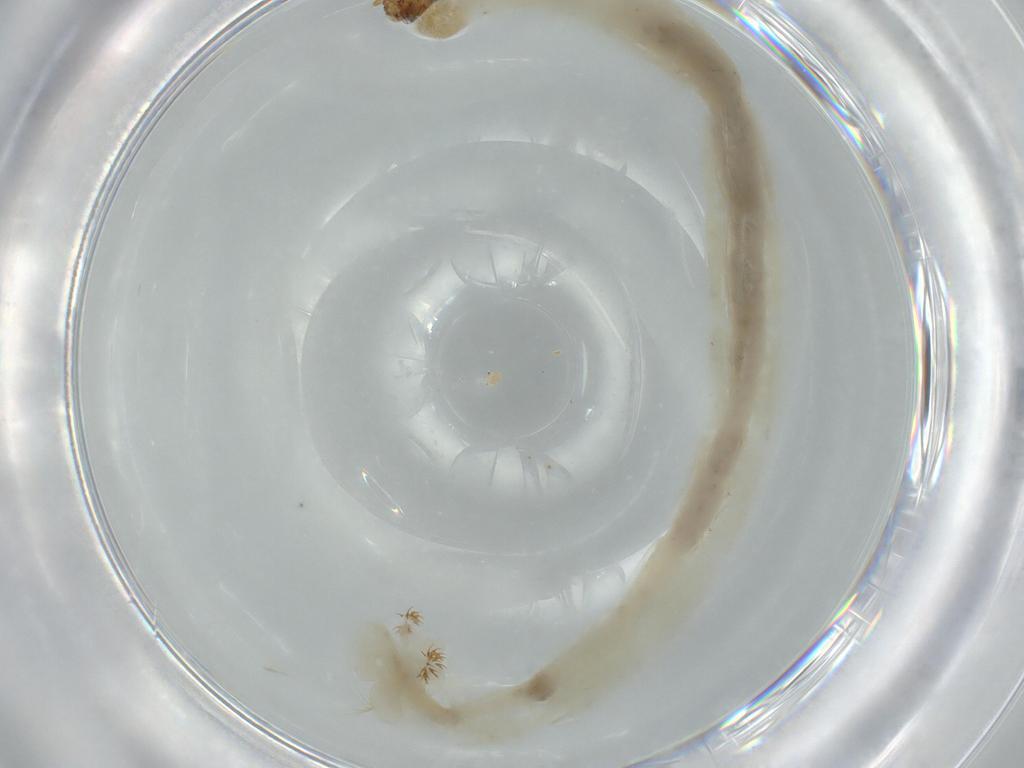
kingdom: Animalia
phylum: Arthropoda
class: Insecta
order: Diptera
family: Chironomidae
